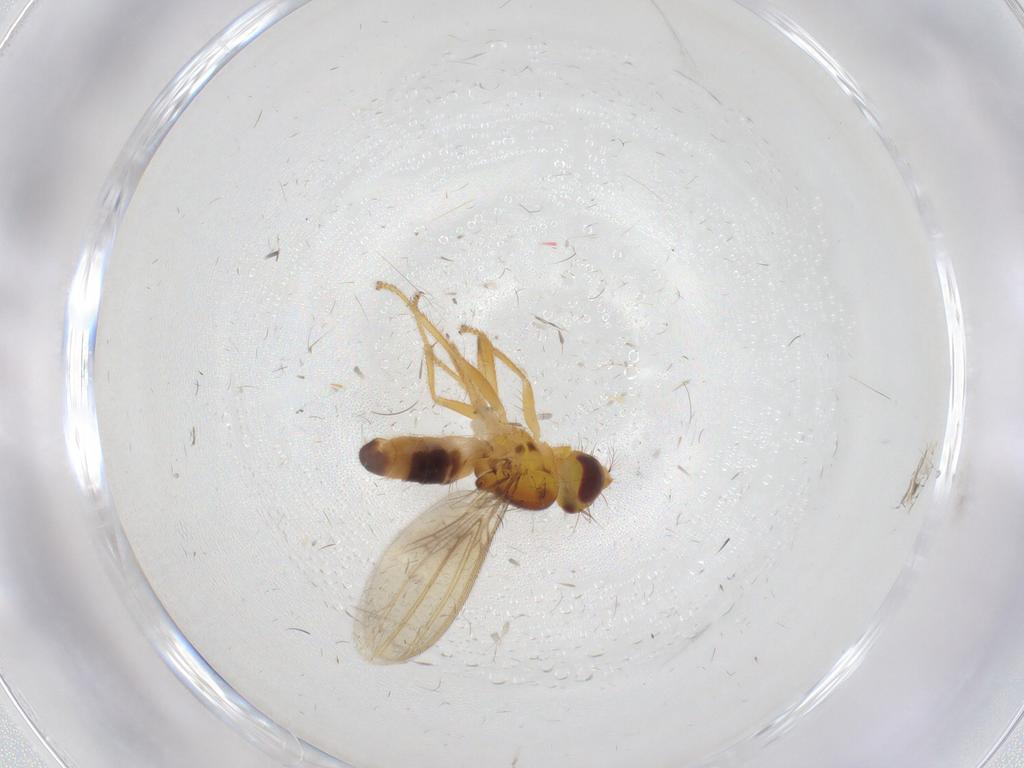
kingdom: Animalia
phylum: Arthropoda
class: Insecta
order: Diptera
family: Periscelididae
